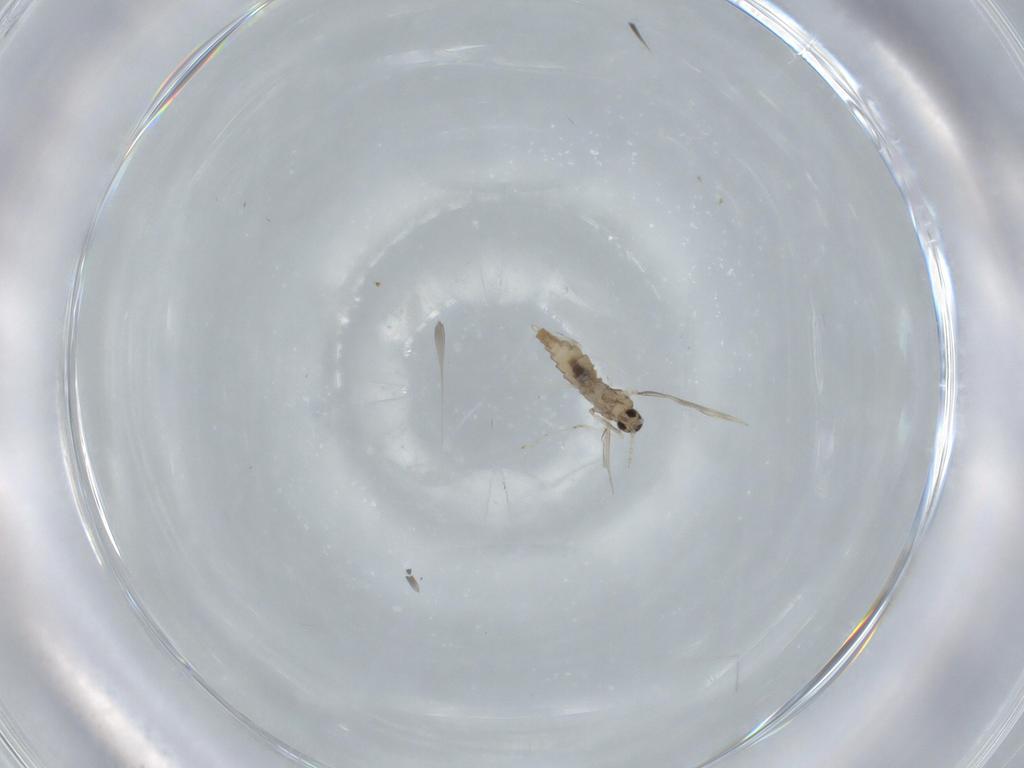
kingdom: Animalia
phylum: Arthropoda
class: Insecta
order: Diptera
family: Cecidomyiidae
